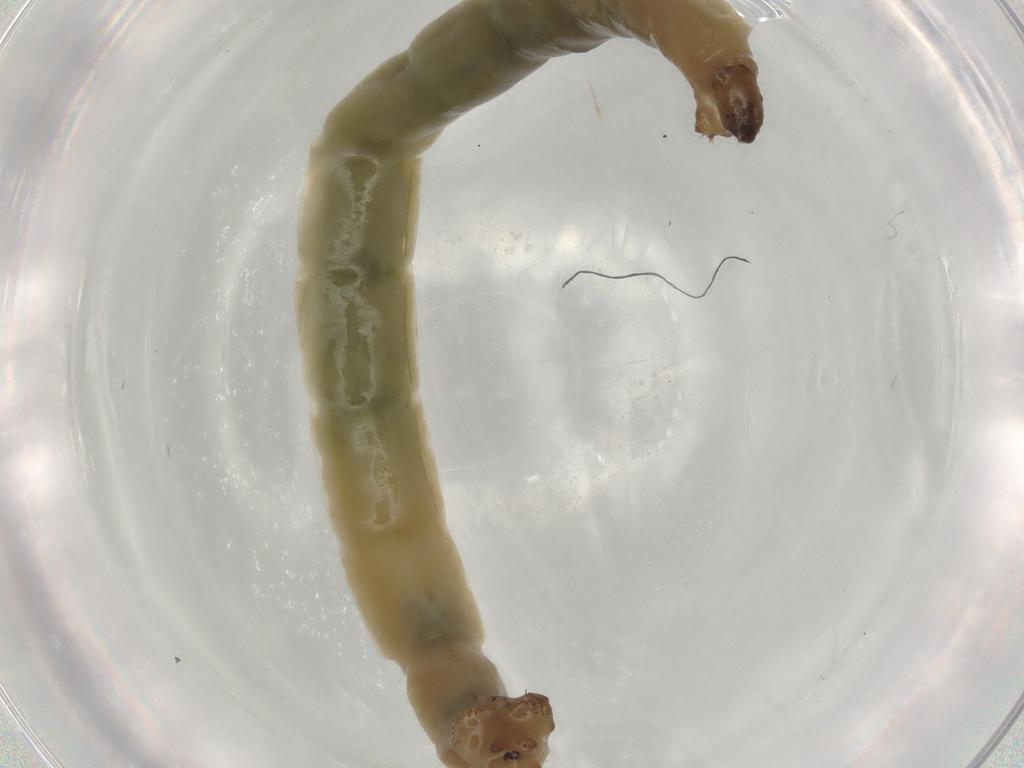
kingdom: Animalia
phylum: Arthropoda
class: Insecta
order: Diptera
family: Chironomidae
